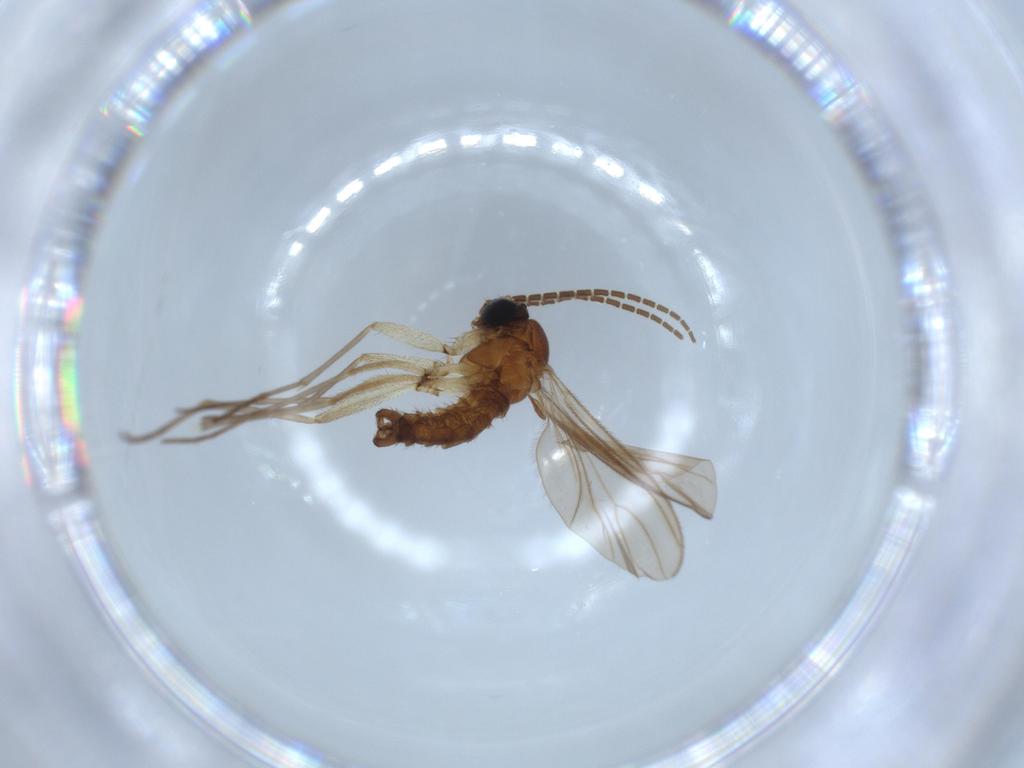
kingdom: Animalia
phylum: Arthropoda
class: Insecta
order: Diptera
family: Sciaridae
